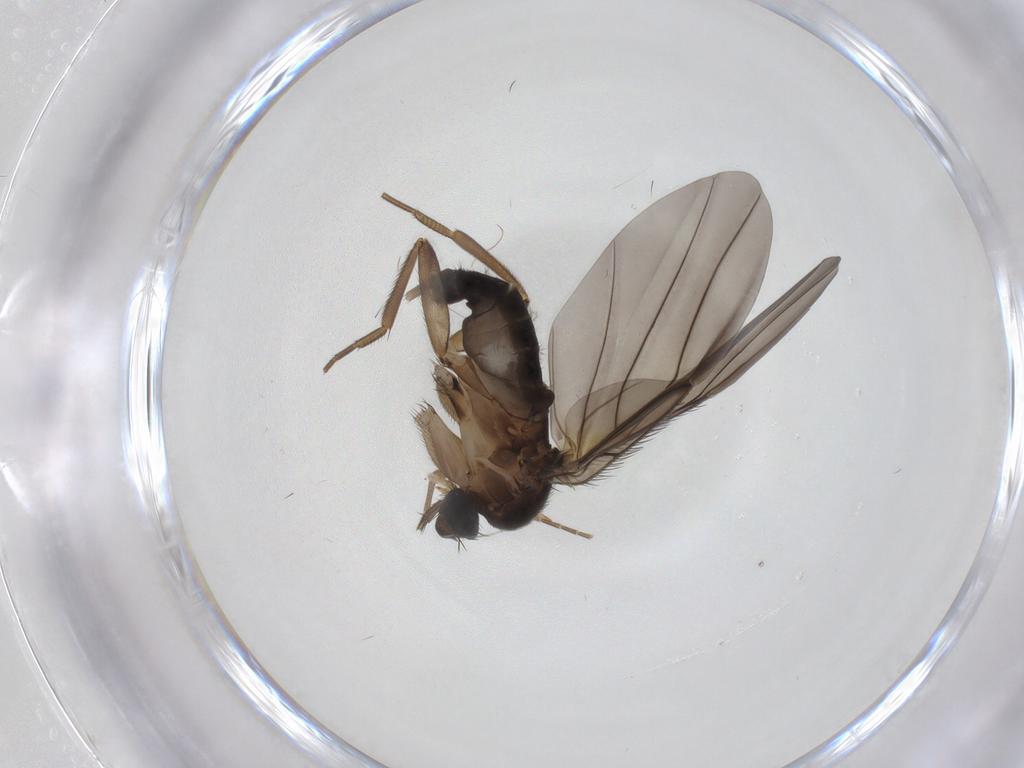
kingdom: Animalia
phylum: Arthropoda
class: Insecta
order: Diptera
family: Phoridae
